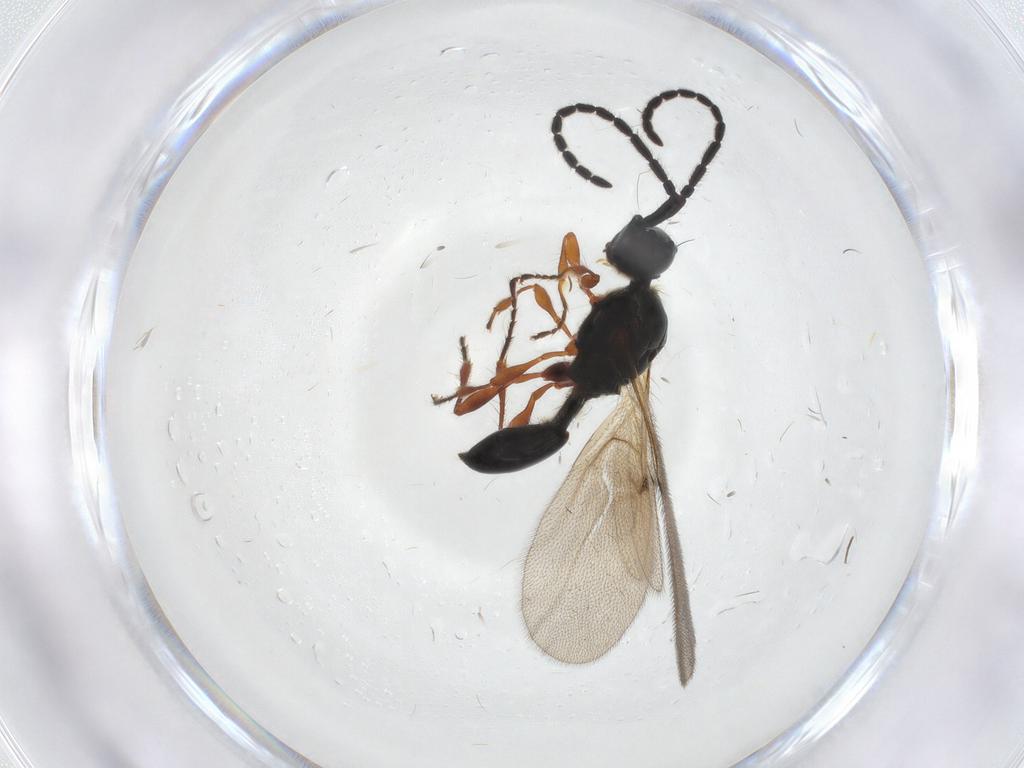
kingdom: Animalia
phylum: Arthropoda
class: Insecta
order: Hymenoptera
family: Diapriidae
